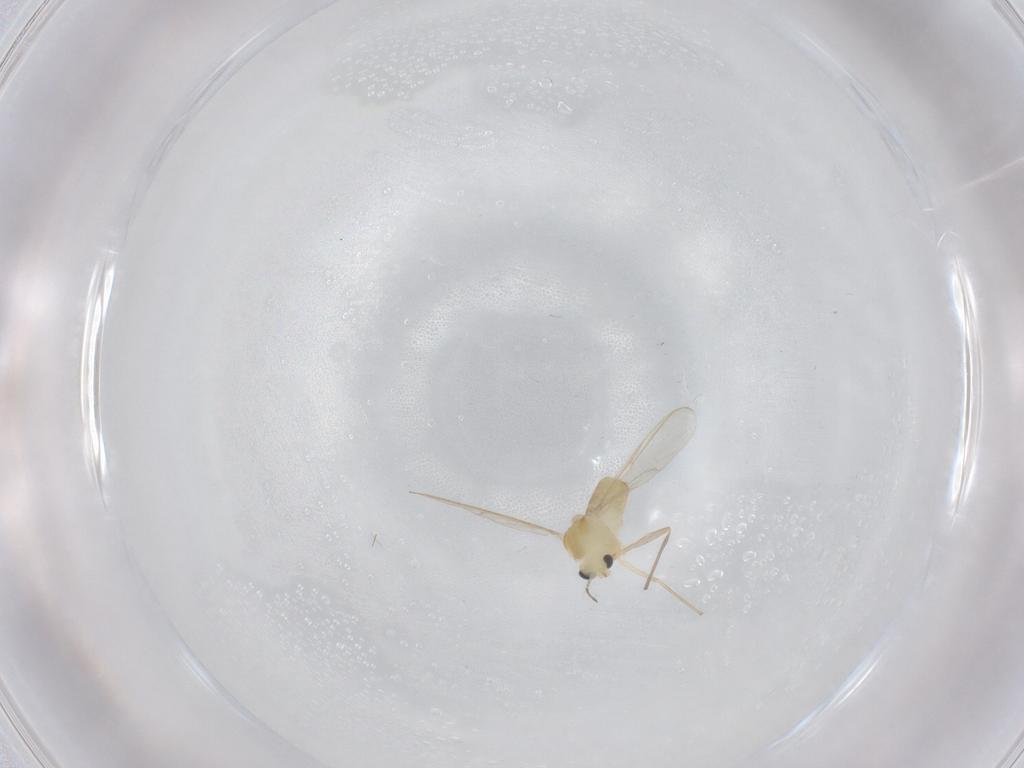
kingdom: Animalia
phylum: Arthropoda
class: Insecta
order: Diptera
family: Chironomidae
